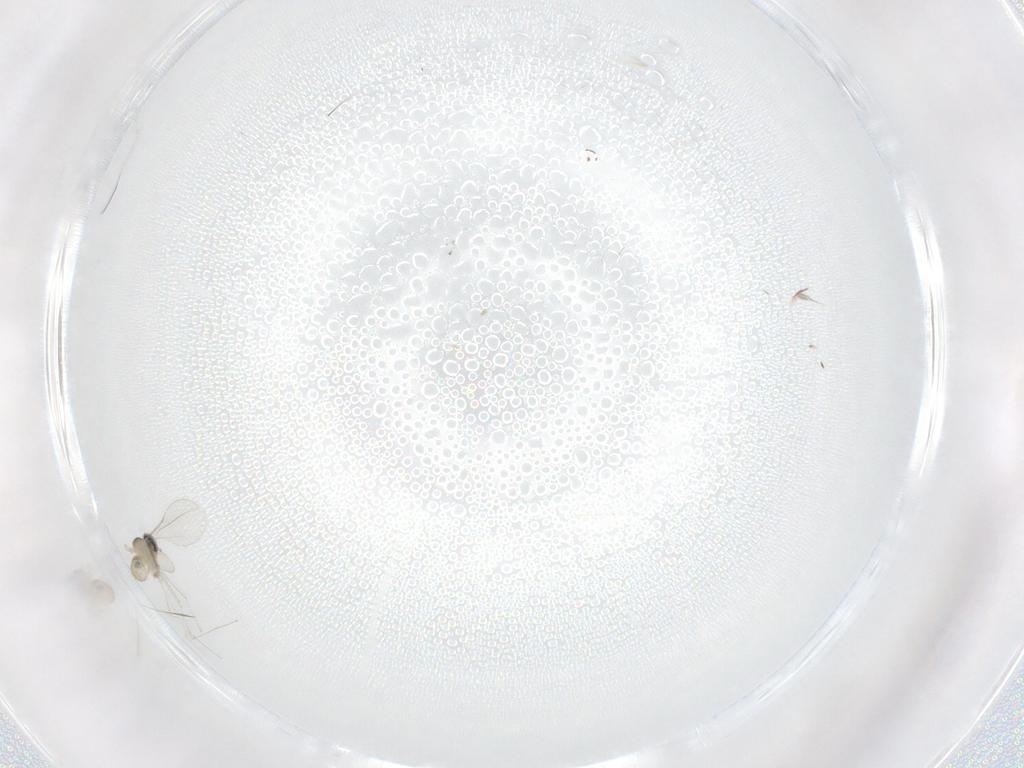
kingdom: Animalia
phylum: Arthropoda
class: Insecta
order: Diptera
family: Cecidomyiidae
